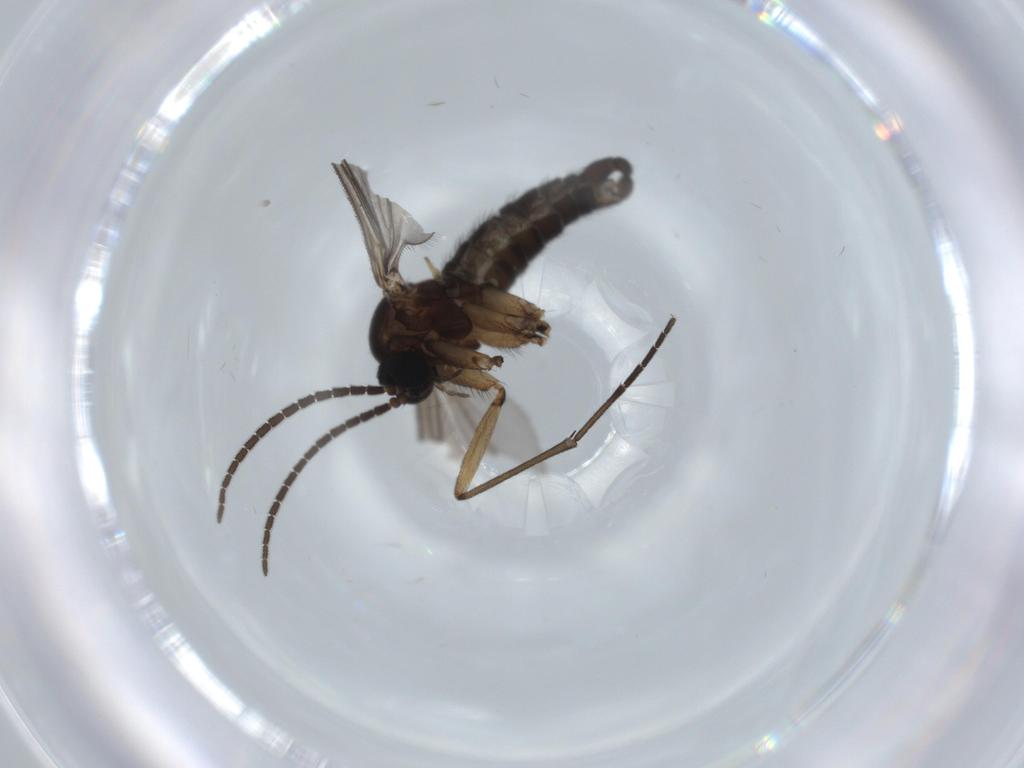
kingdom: Animalia
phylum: Arthropoda
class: Insecta
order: Diptera
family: Sciaridae
